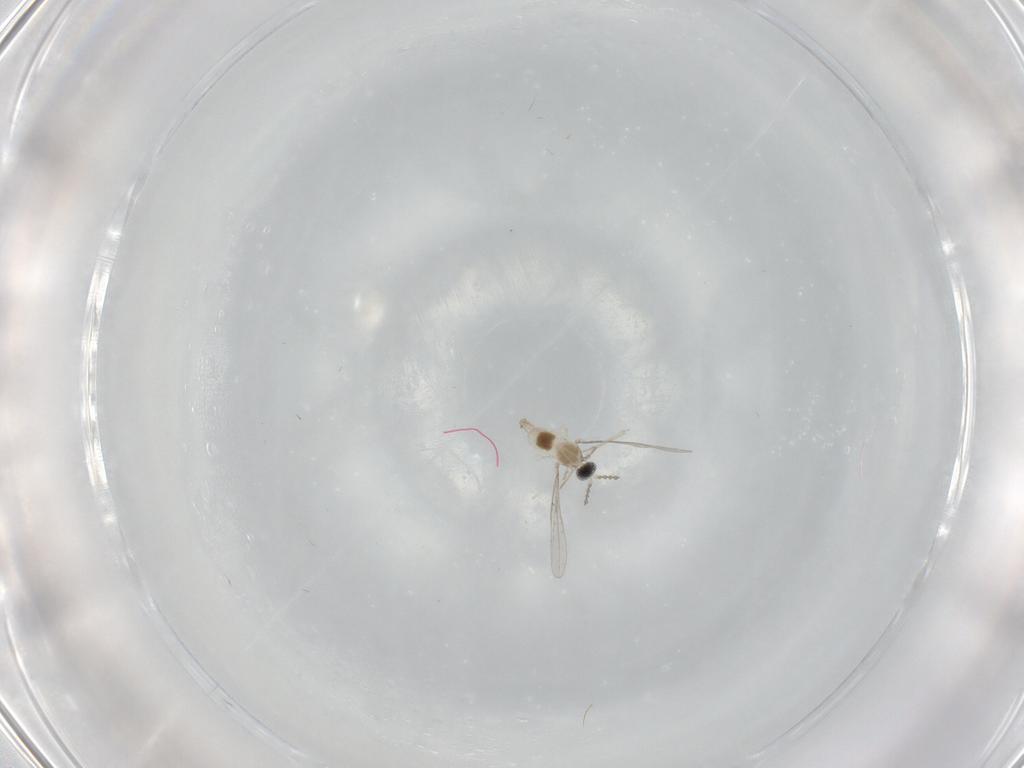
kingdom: Animalia
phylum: Arthropoda
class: Insecta
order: Diptera
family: Cecidomyiidae
